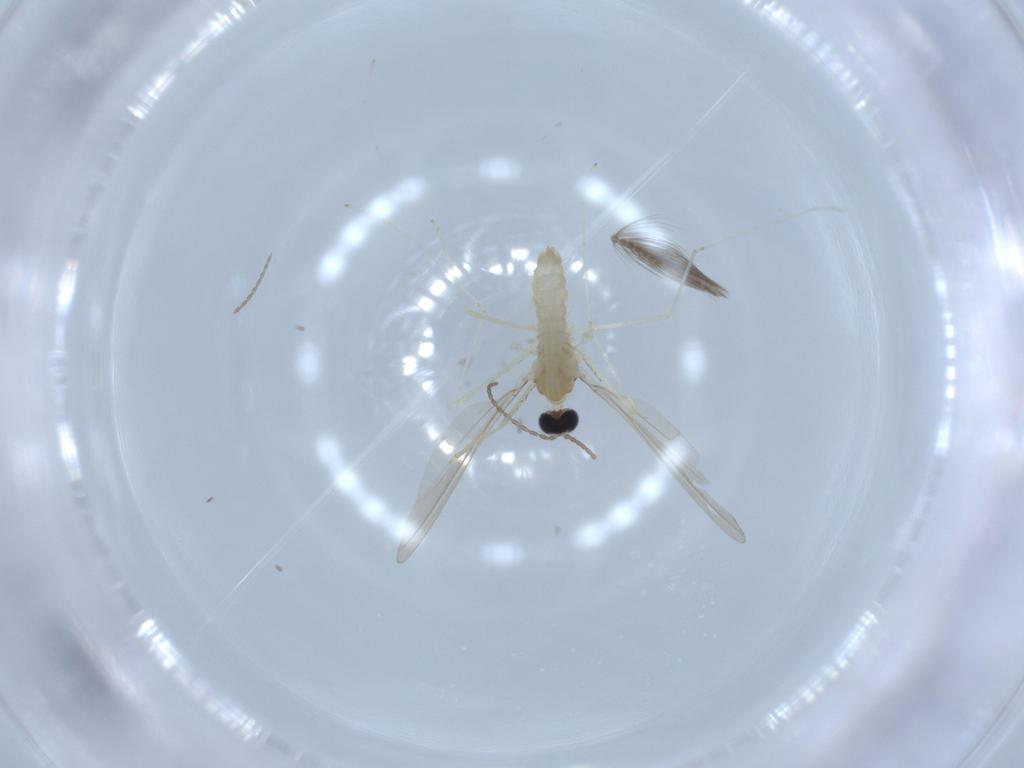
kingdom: Animalia
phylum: Arthropoda
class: Insecta
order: Diptera
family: Cecidomyiidae
